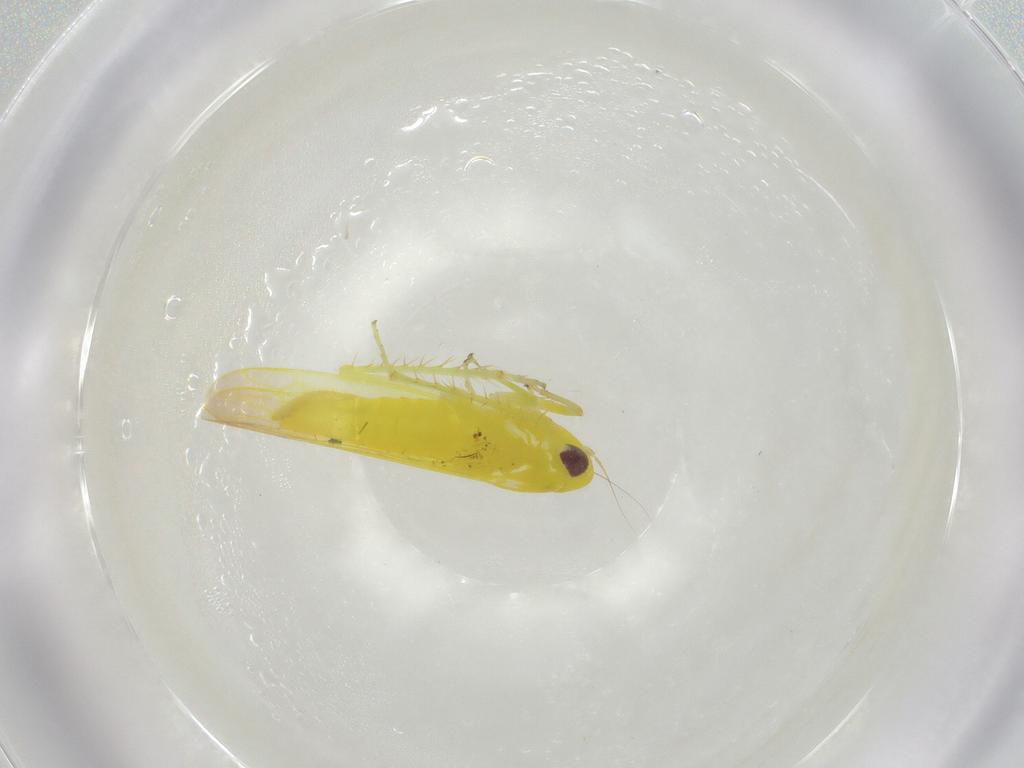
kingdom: Animalia
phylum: Arthropoda
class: Insecta
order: Hemiptera
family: Cicadellidae
